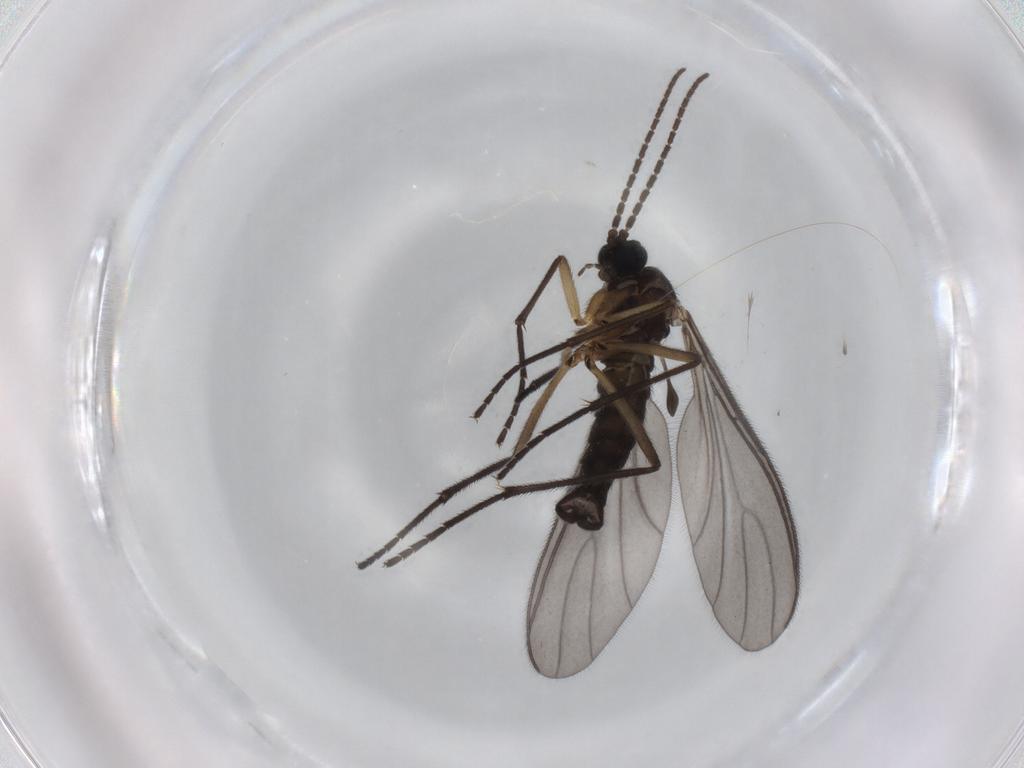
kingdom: Animalia
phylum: Arthropoda
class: Insecta
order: Diptera
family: Sciaridae
